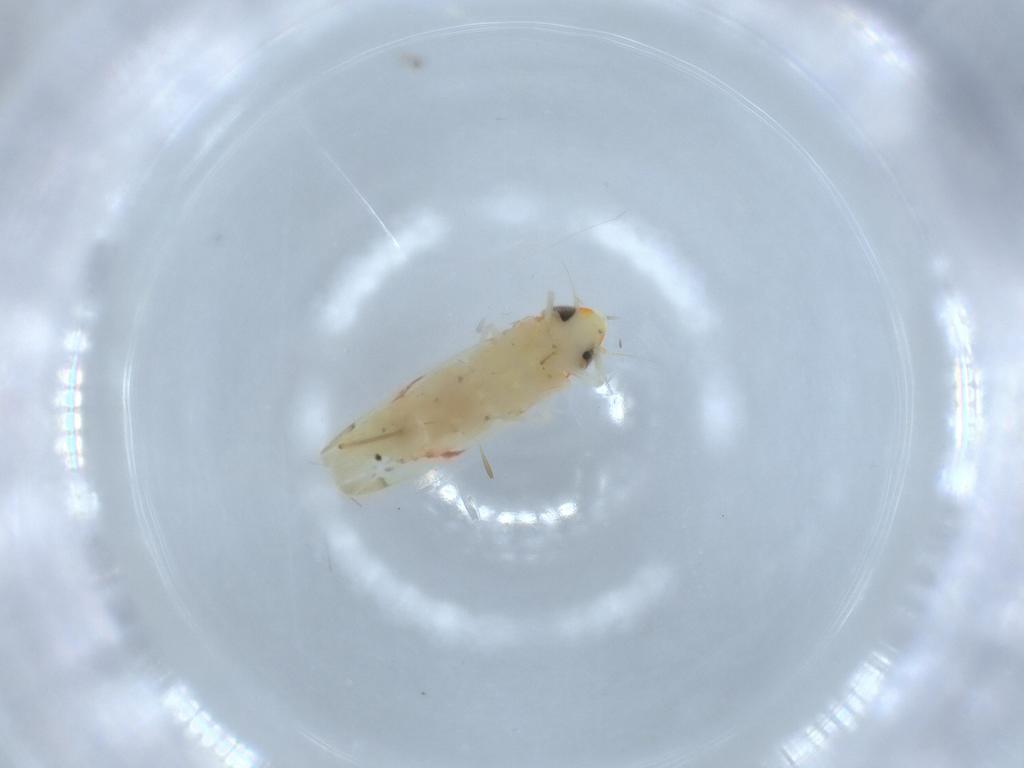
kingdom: Animalia
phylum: Arthropoda
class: Insecta
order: Hemiptera
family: Cicadellidae
